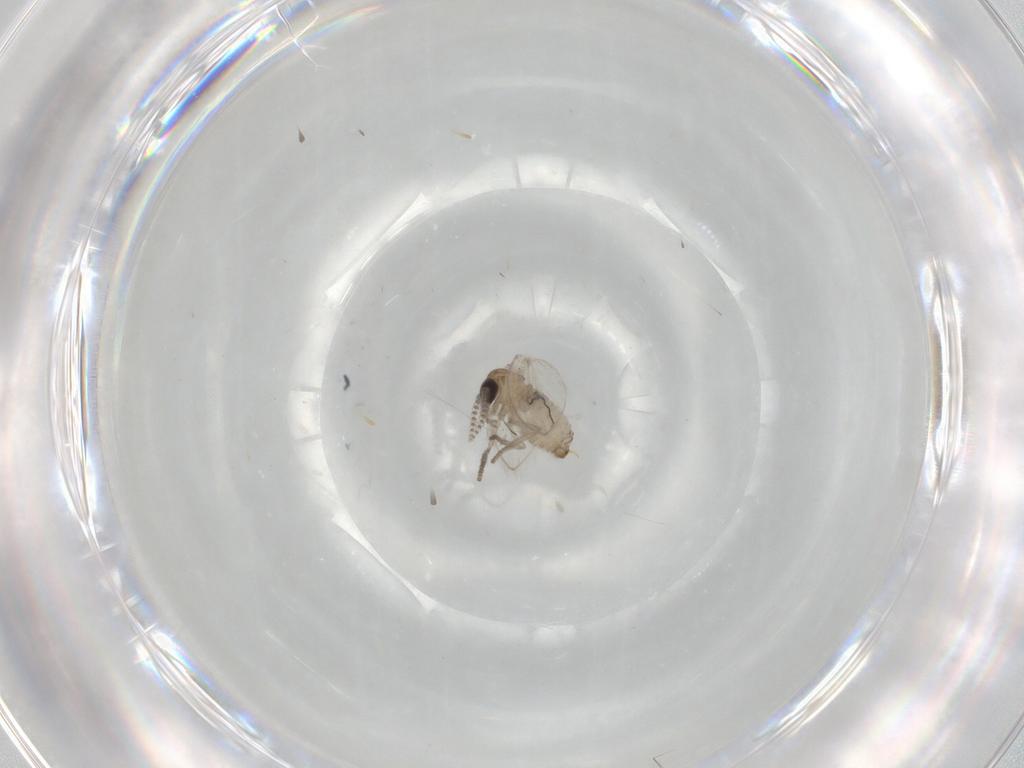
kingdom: Animalia
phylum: Arthropoda
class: Insecta
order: Diptera
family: Psychodidae
